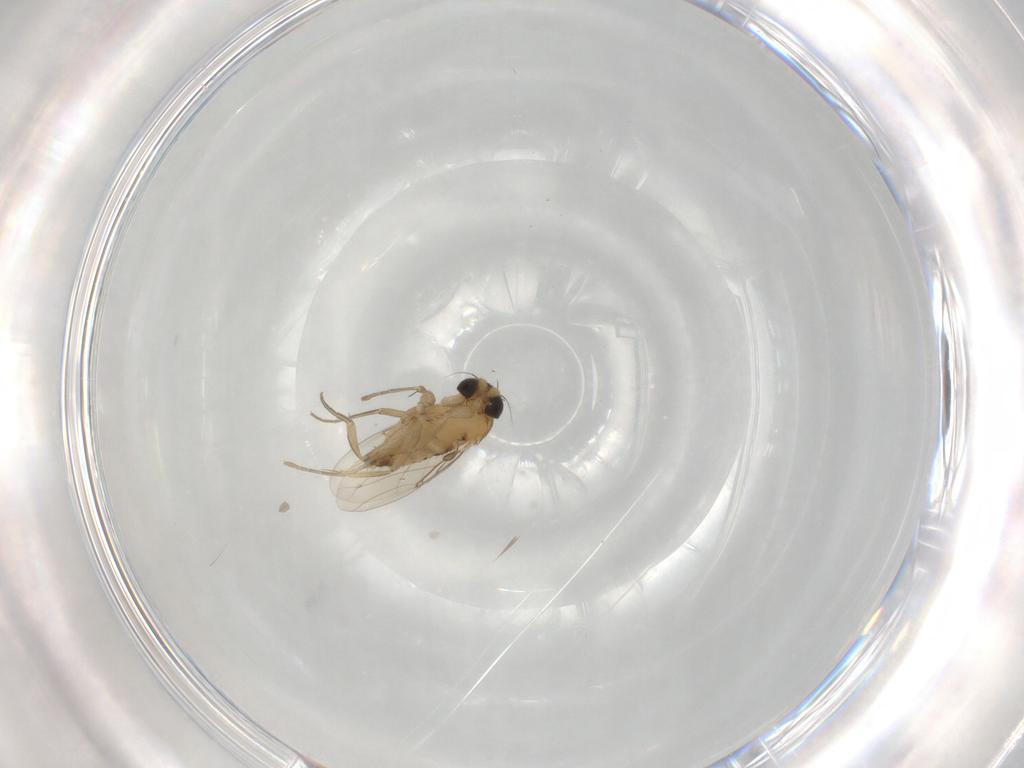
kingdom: Animalia
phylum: Arthropoda
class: Insecta
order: Diptera
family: Phoridae
